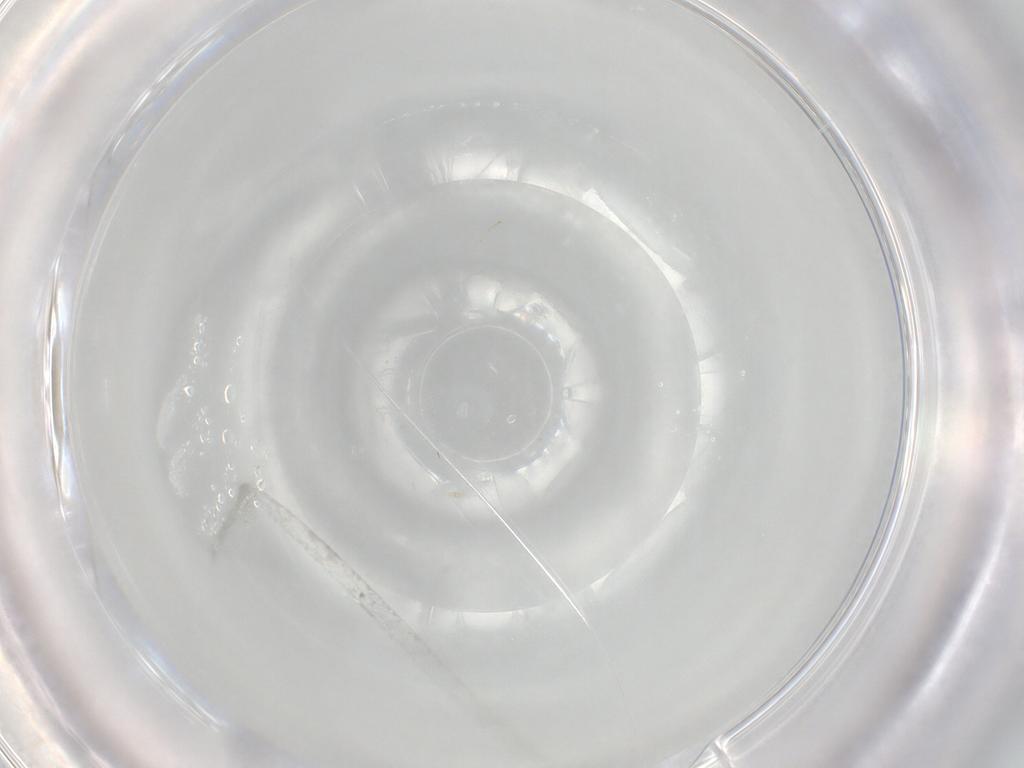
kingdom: Animalia
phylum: Arthropoda
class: Collembola
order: Entomobryomorpha
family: Entomobryidae
